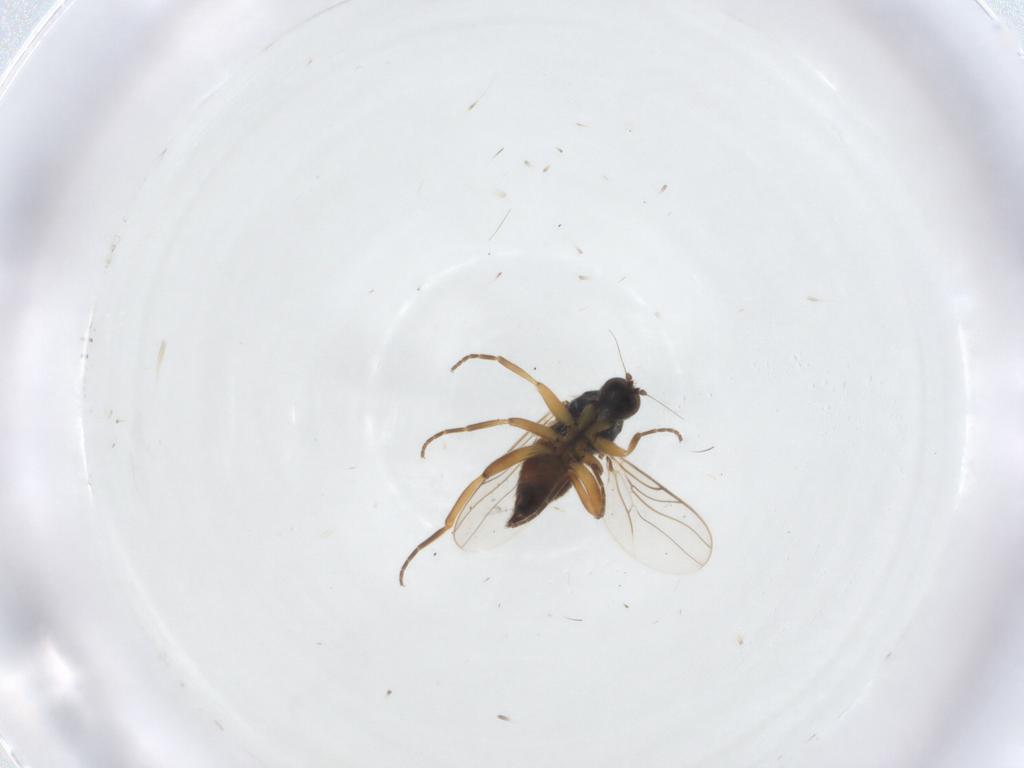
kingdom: Animalia
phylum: Arthropoda
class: Insecta
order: Diptera
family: Hybotidae
